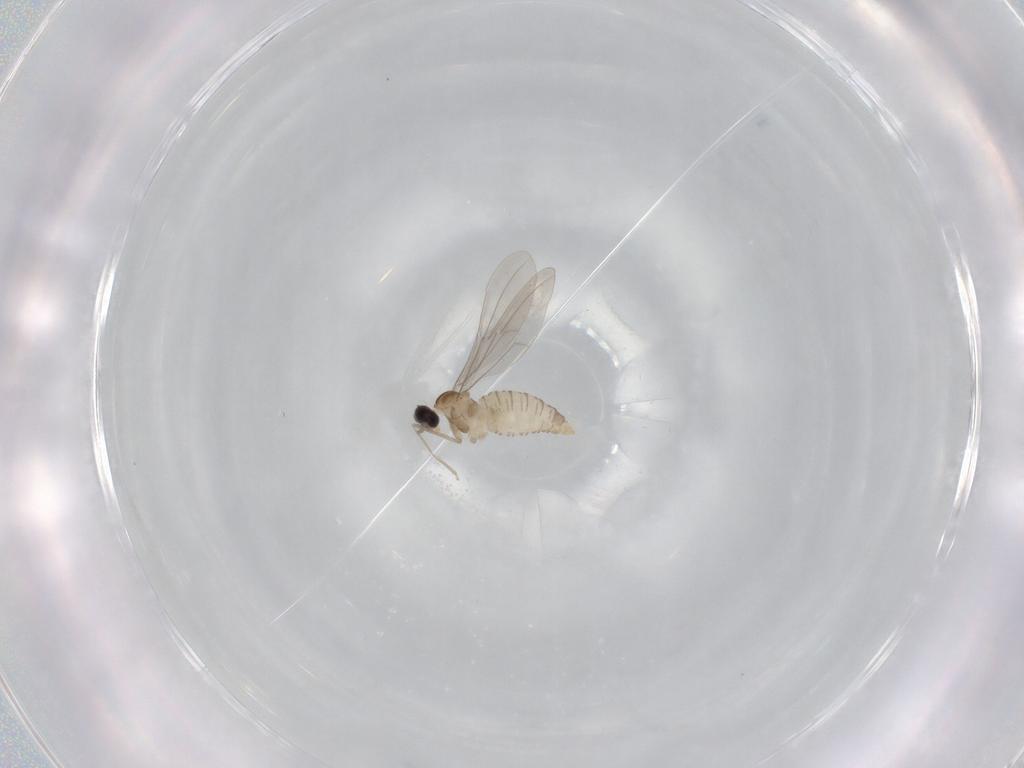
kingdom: Animalia
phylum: Arthropoda
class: Insecta
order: Diptera
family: Cecidomyiidae
